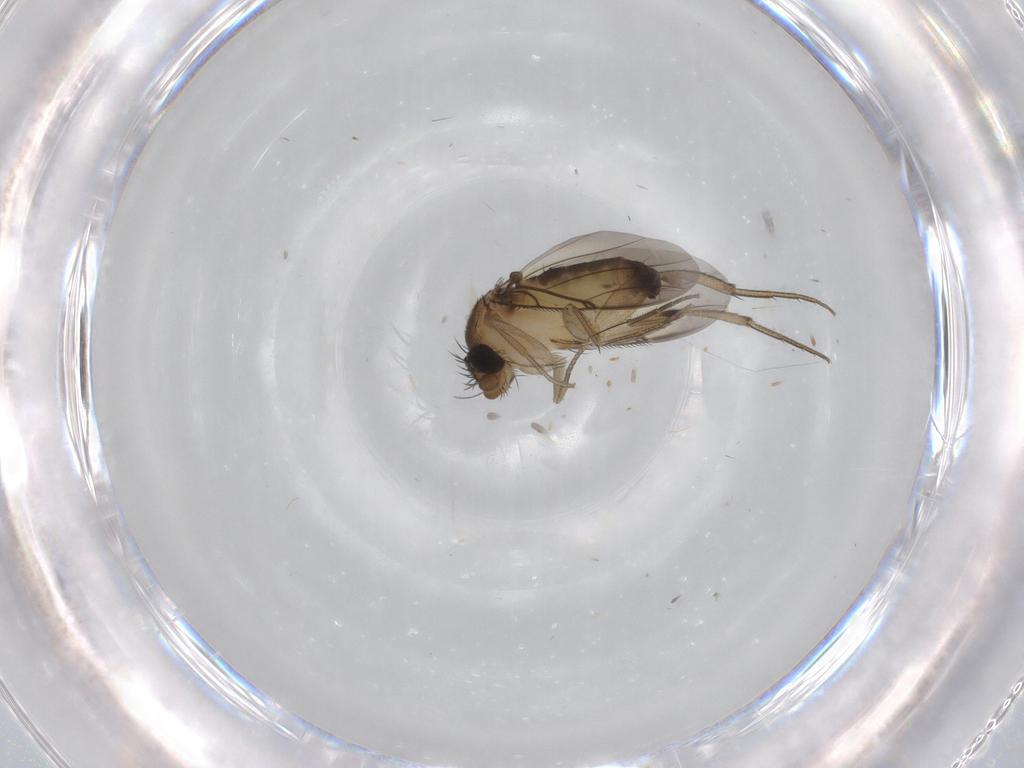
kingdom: Animalia
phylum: Arthropoda
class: Insecta
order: Diptera
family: Phoridae
